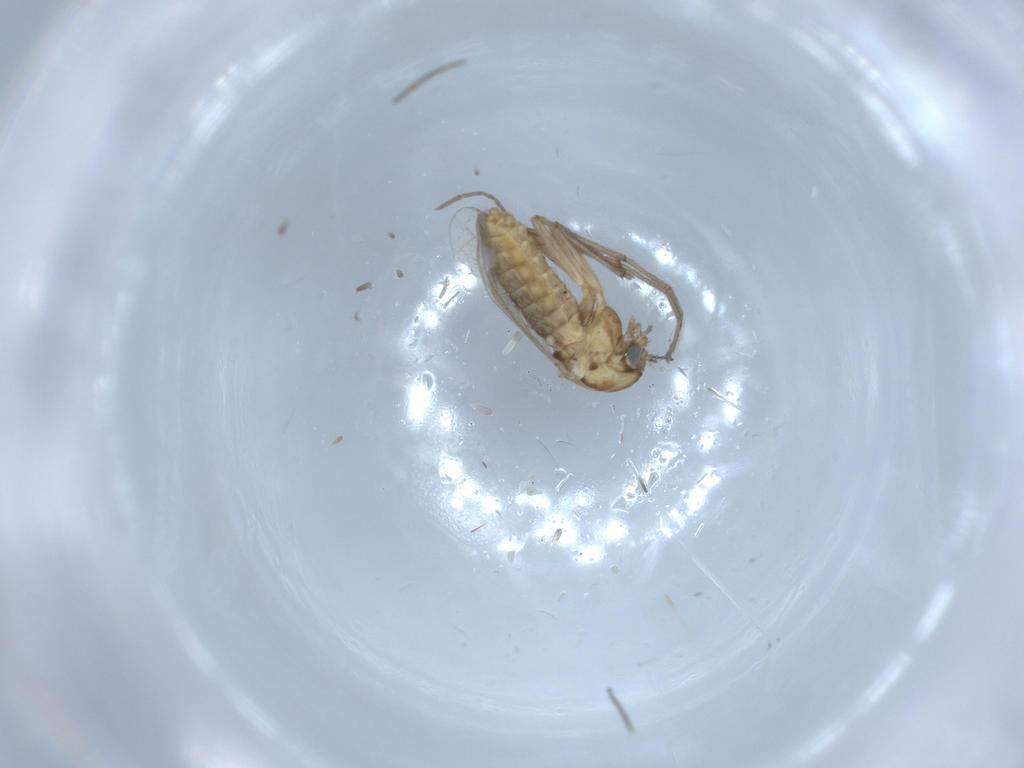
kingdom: Animalia
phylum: Arthropoda
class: Insecta
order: Diptera
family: Chironomidae
